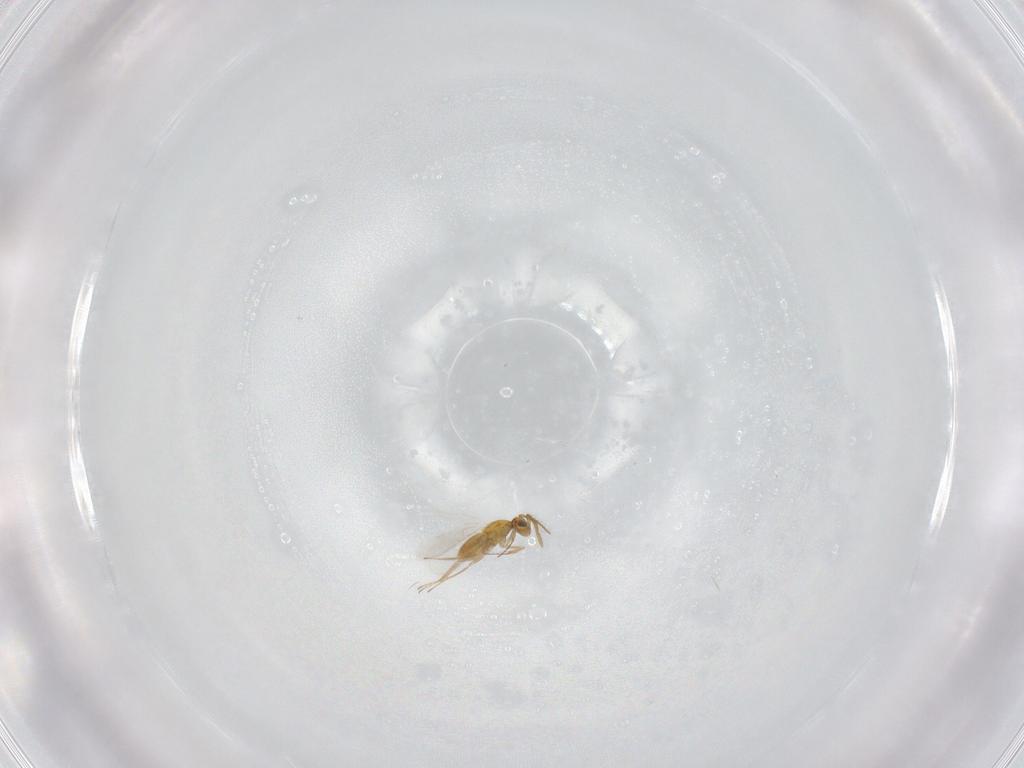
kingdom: Animalia
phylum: Arthropoda
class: Insecta
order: Hymenoptera
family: Aphelinidae
